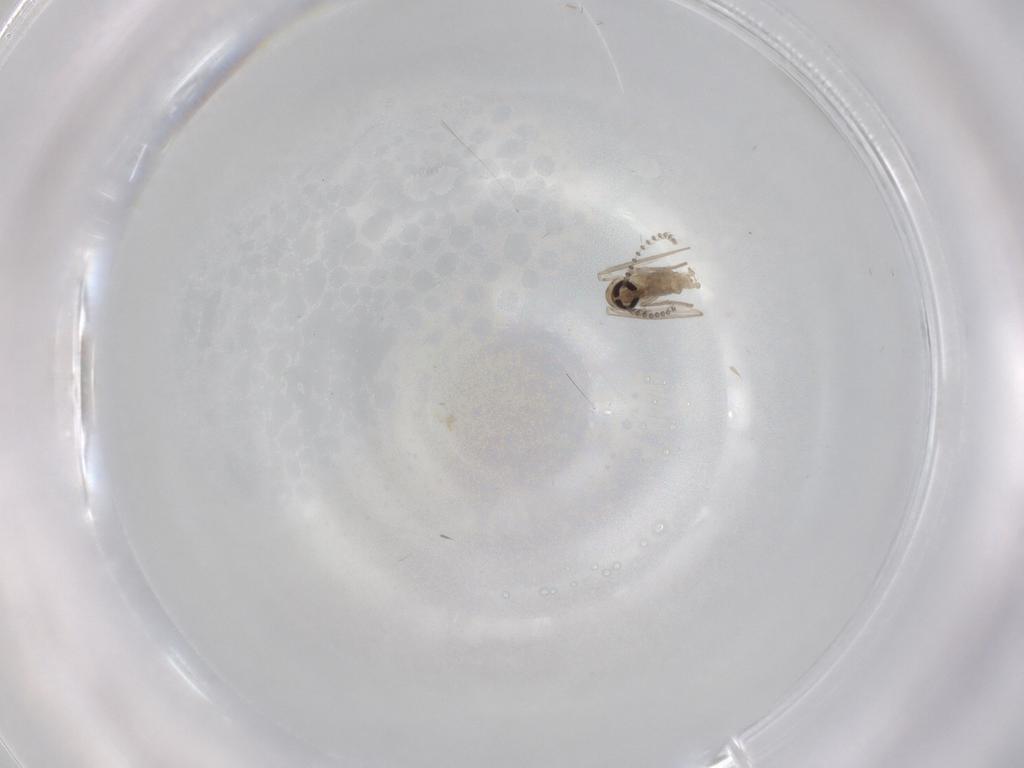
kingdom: Animalia
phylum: Arthropoda
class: Insecta
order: Diptera
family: Psychodidae
